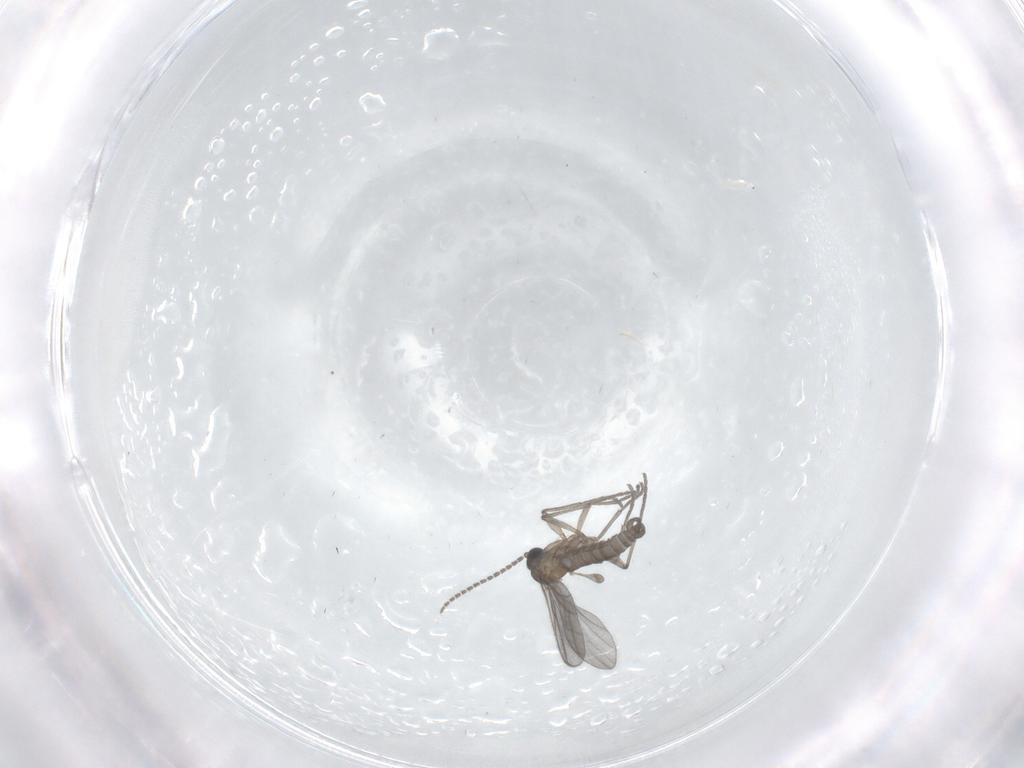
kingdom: Animalia
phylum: Arthropoda
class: Insecta
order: Diptera
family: Sciaridae
